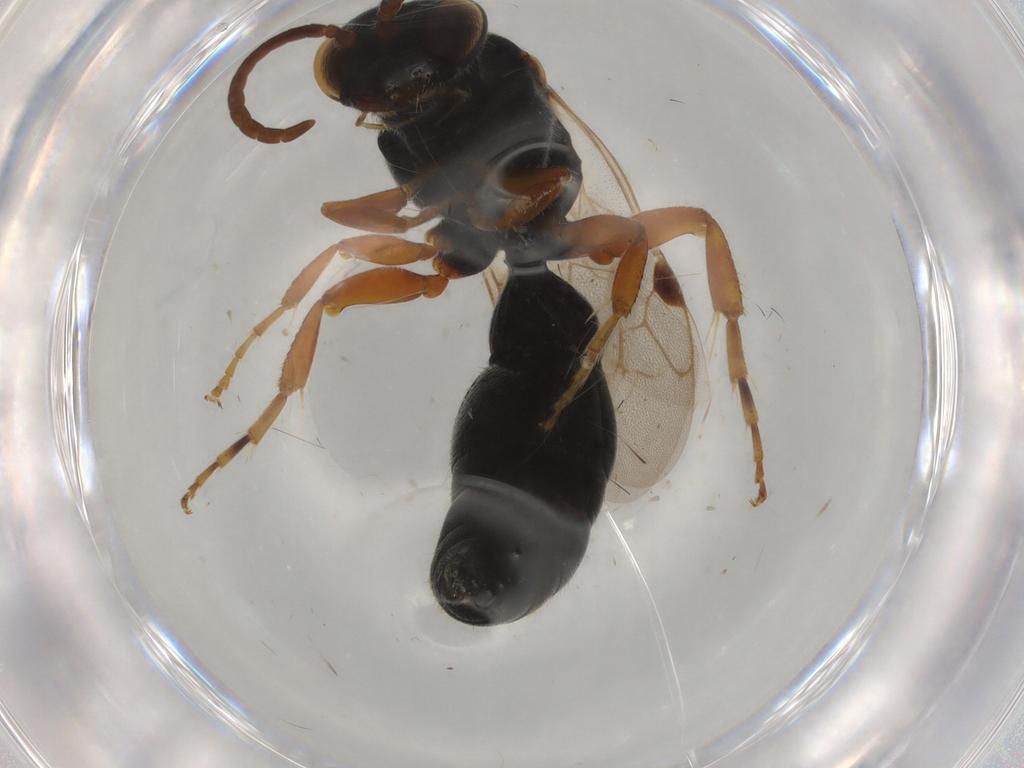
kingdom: Animalia
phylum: Arthropoda
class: Insecta
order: Hymenoptera
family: Tiphiidae
